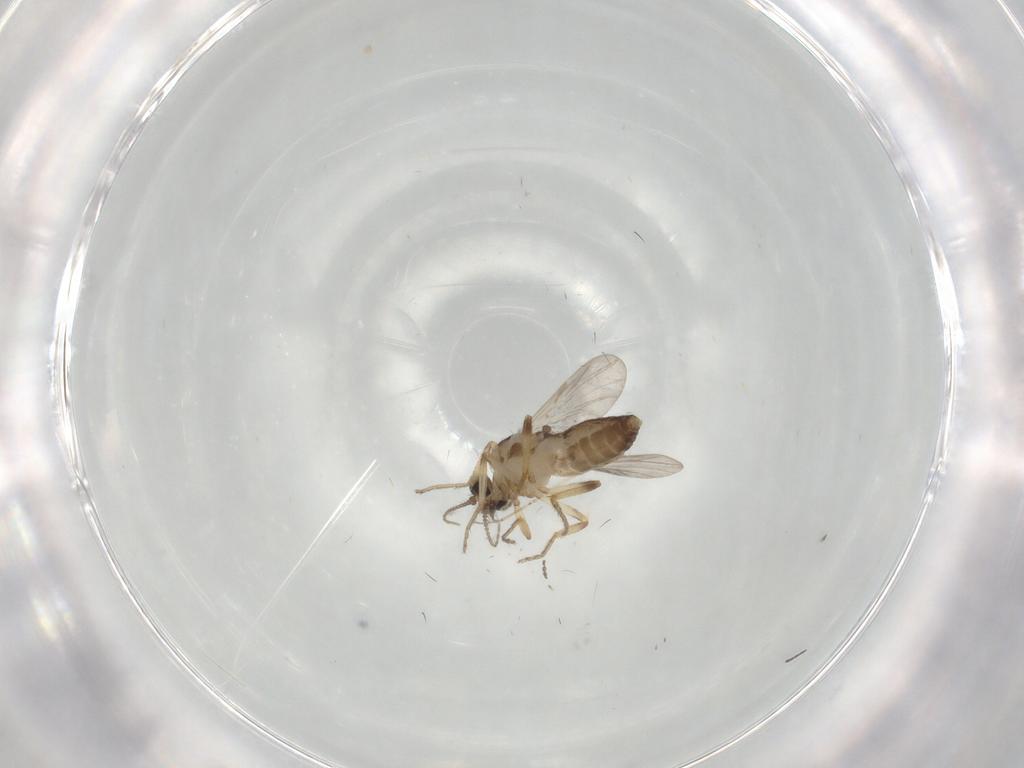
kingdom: Animalia
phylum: Arthropoda
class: Insecta
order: Diptera
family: Ceratopogonidae
